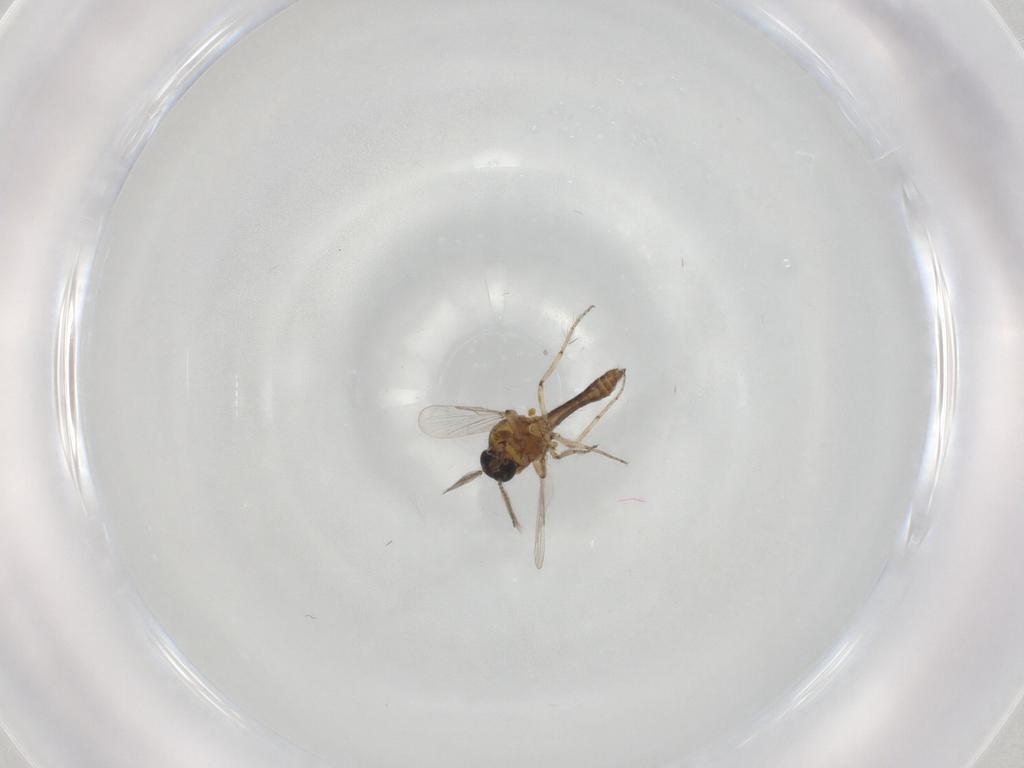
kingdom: Animalia
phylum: Arthropoda
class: Insecta
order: Diptera
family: Ceratopogonidae
